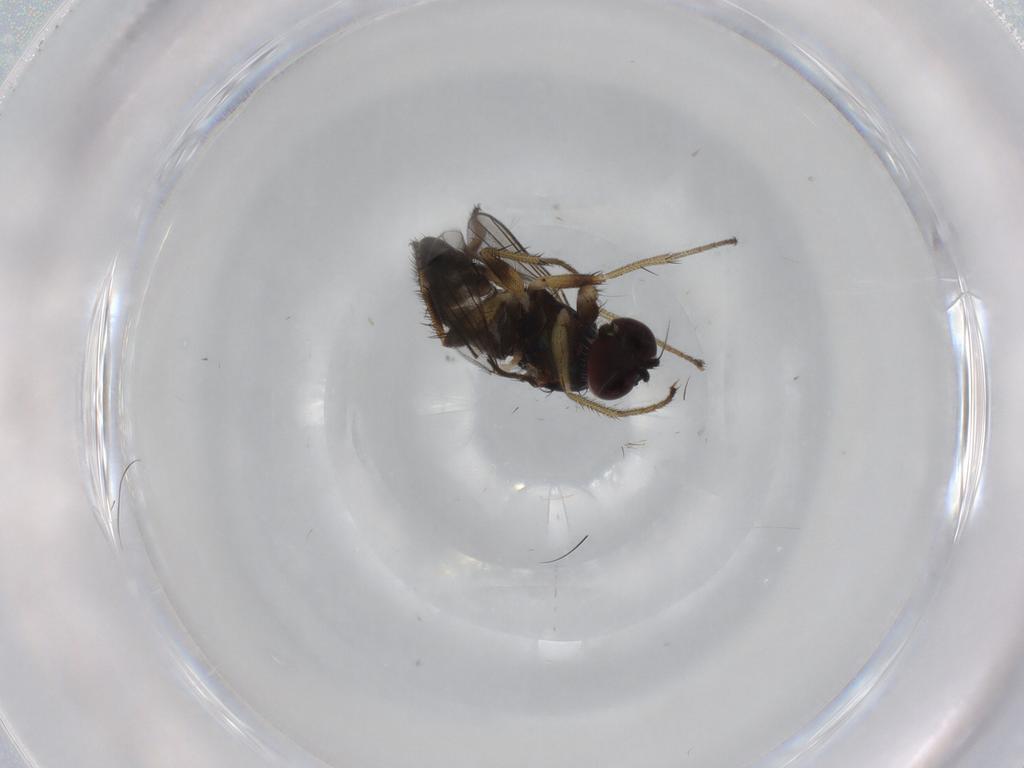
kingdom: Animalia
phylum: Arthropoda
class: Insecta
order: Diptera
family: Dolichopodidae
